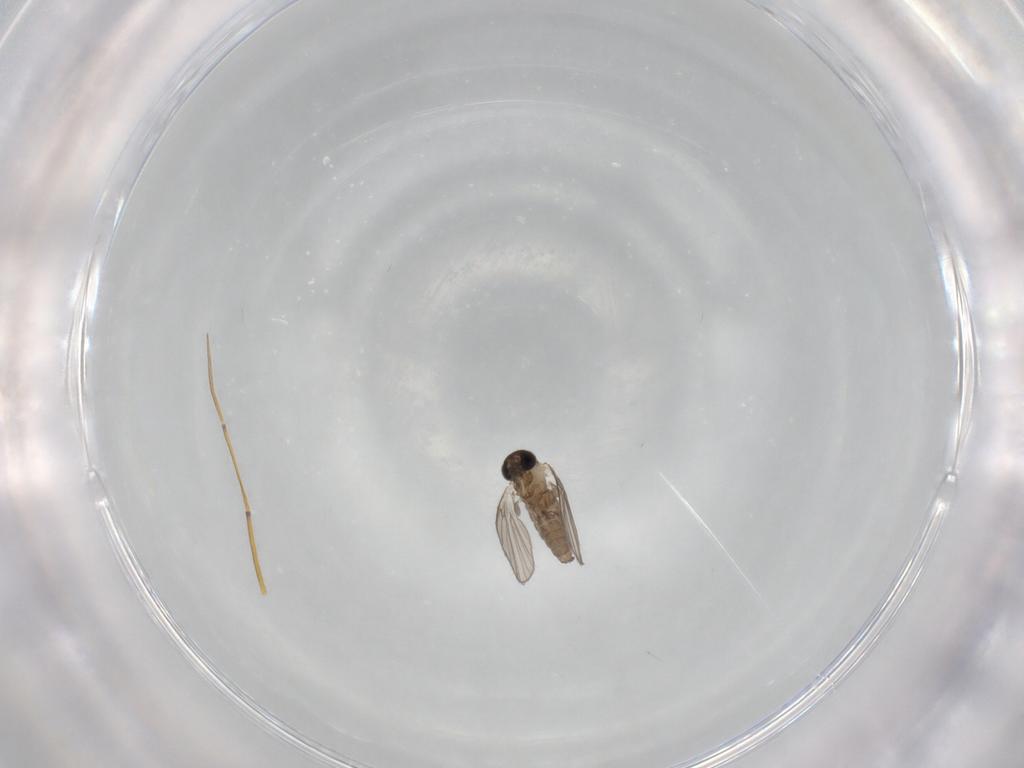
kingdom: Animalia
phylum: Arthropoda
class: Insecta
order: Diptera
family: Psychodidae
